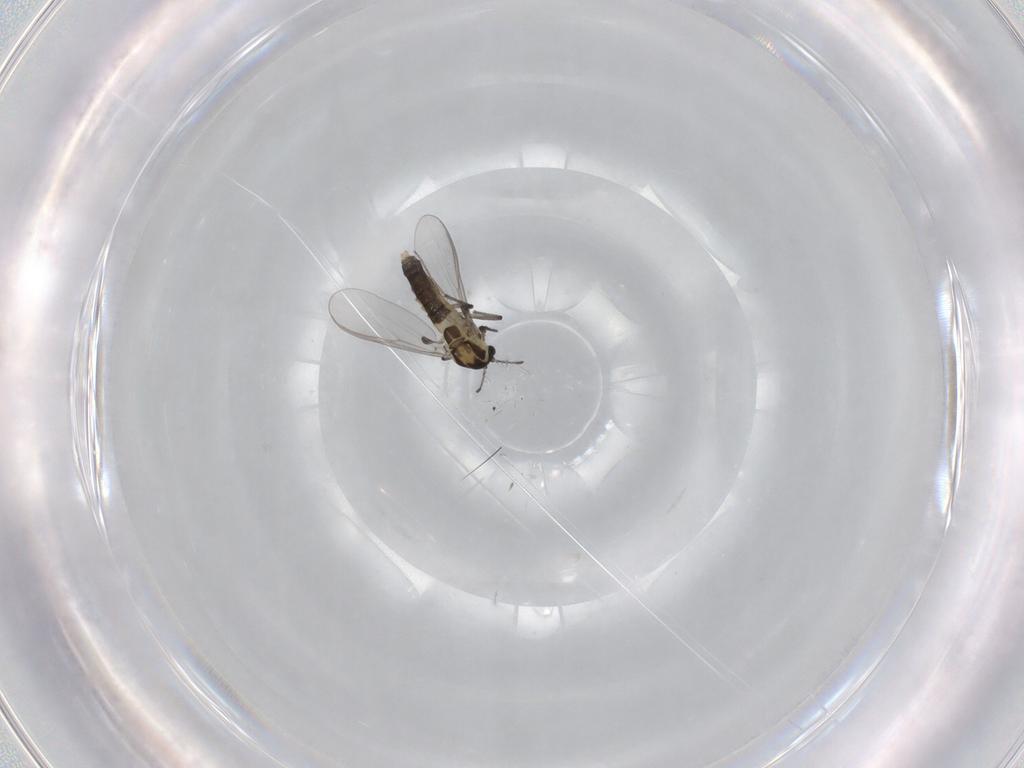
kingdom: Animalia
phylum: Arthropoda
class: Insecta
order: Diptera
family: Chironomidae
